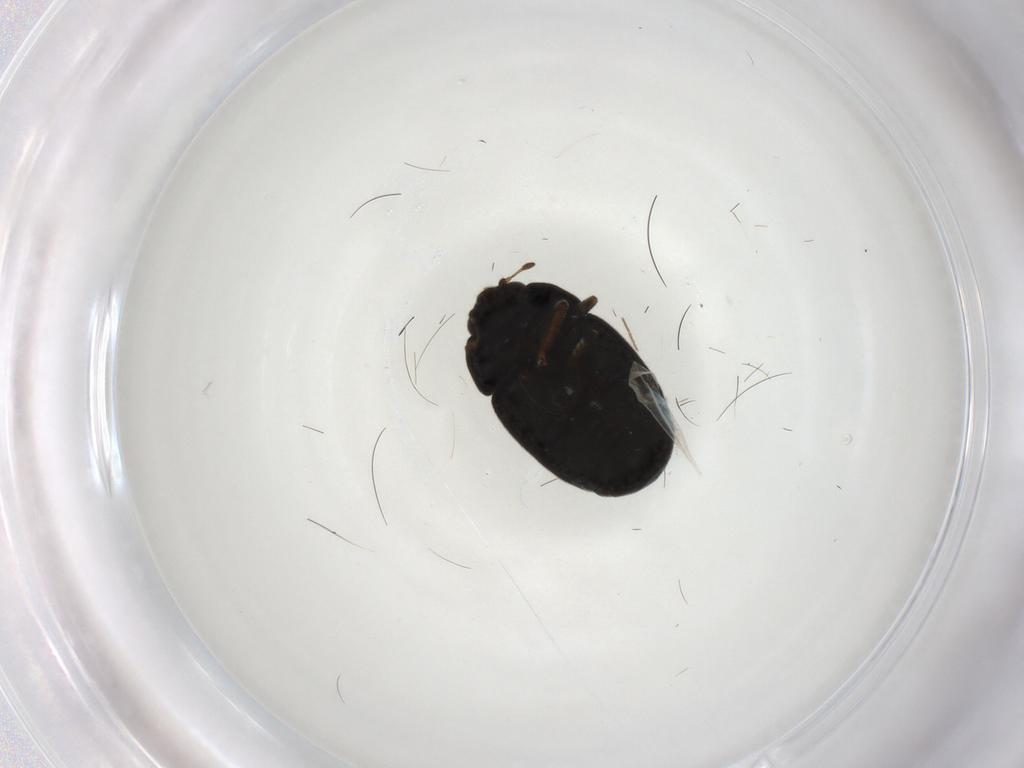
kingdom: Animalia
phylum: Arthropoda
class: Insecta
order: Coleoptera
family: Nitidulidae
